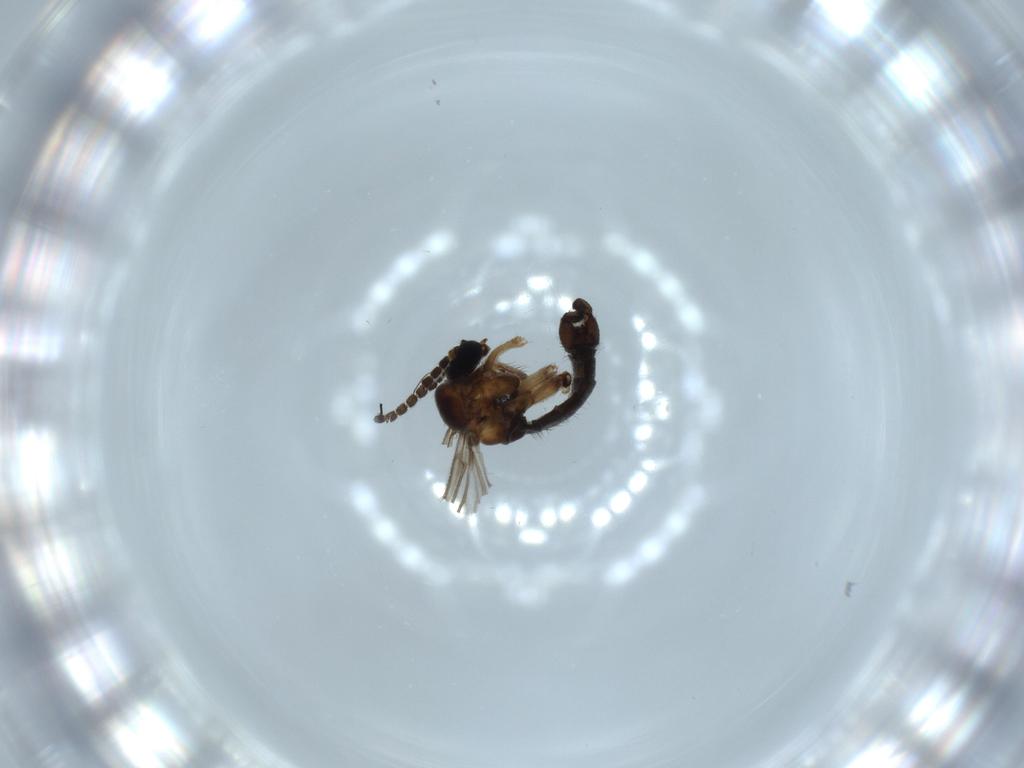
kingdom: Animalia
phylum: Arthropoda
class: Insecta
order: Diptera
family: Sciaridae
